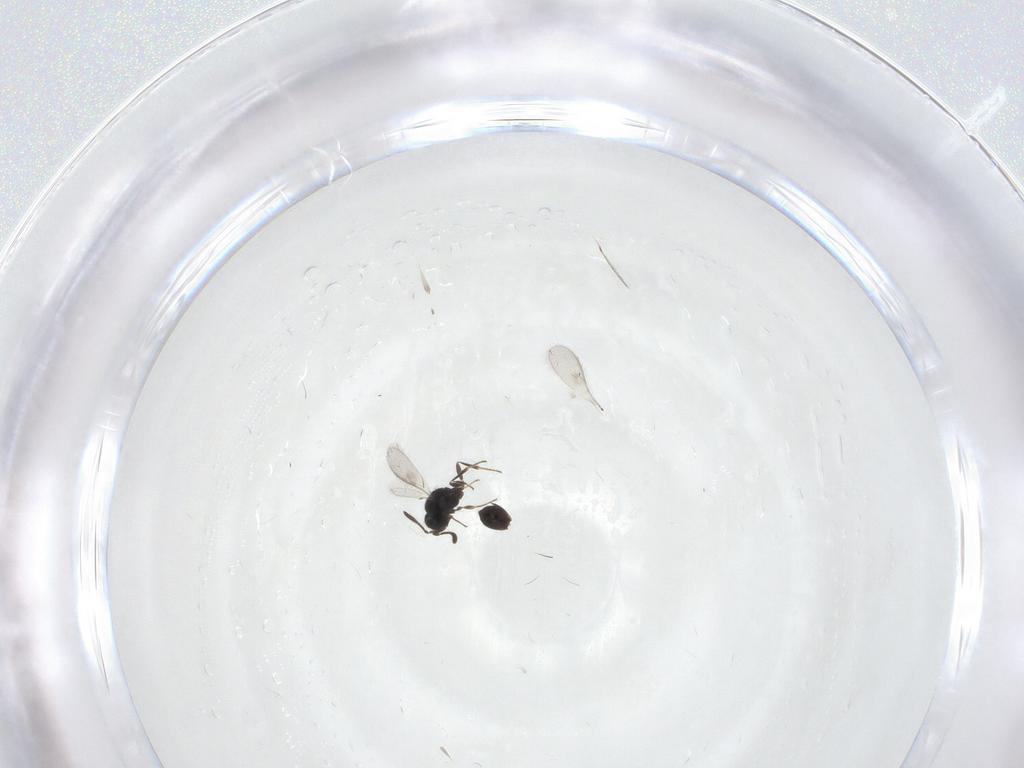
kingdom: Animalia
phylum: Arthropoda
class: Insecta
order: Hymenoptera
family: Scelionidae
